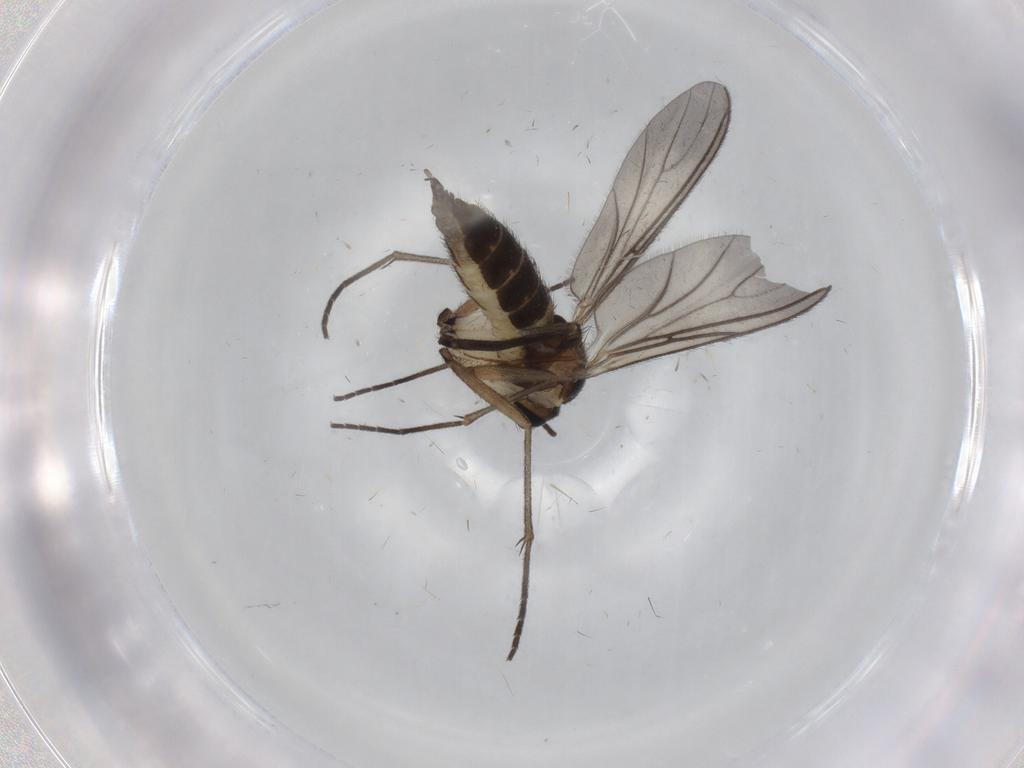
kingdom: Animalia
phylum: Arthropoda
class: Insecta
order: Diptera
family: Sciaridae
